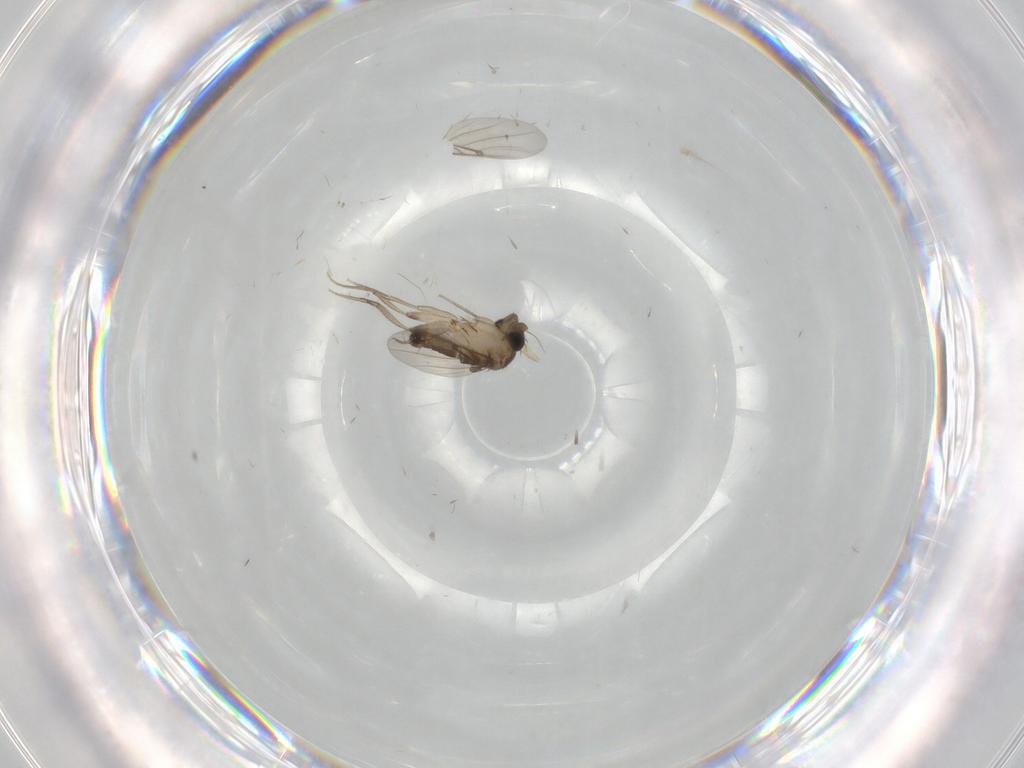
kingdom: Animalia
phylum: Arthropoda
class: Insecta
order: Diptera
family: Phoridae
